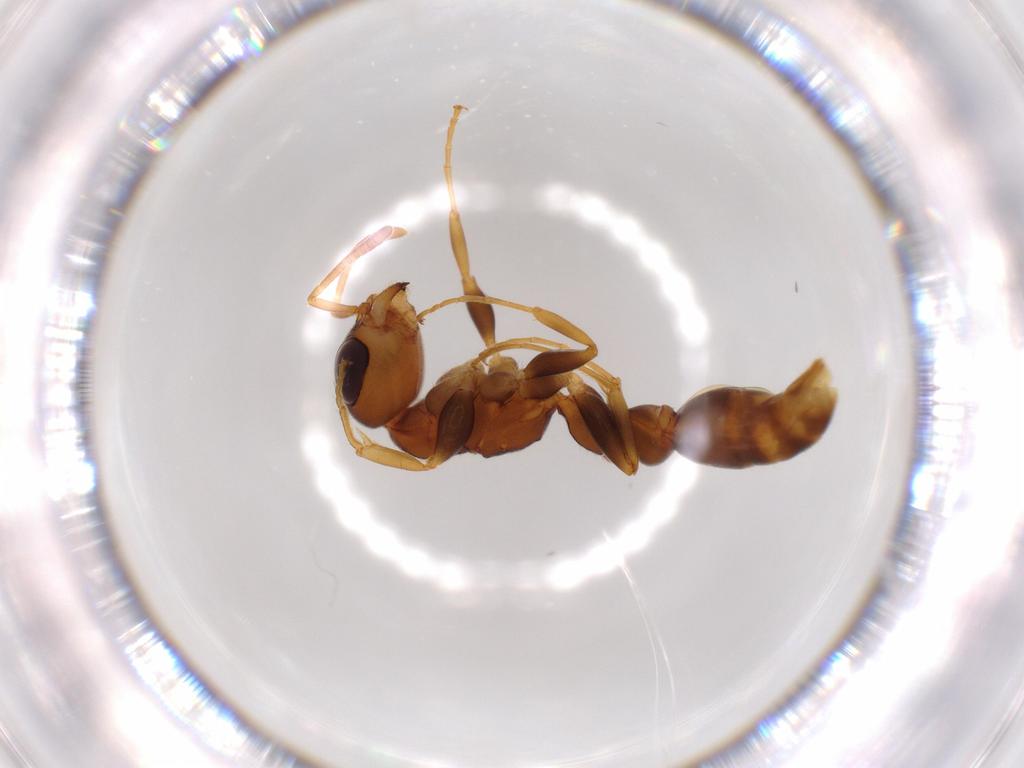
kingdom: Animalia
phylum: Arthropoda
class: Insecta
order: Hymenoptera
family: Formicidae
